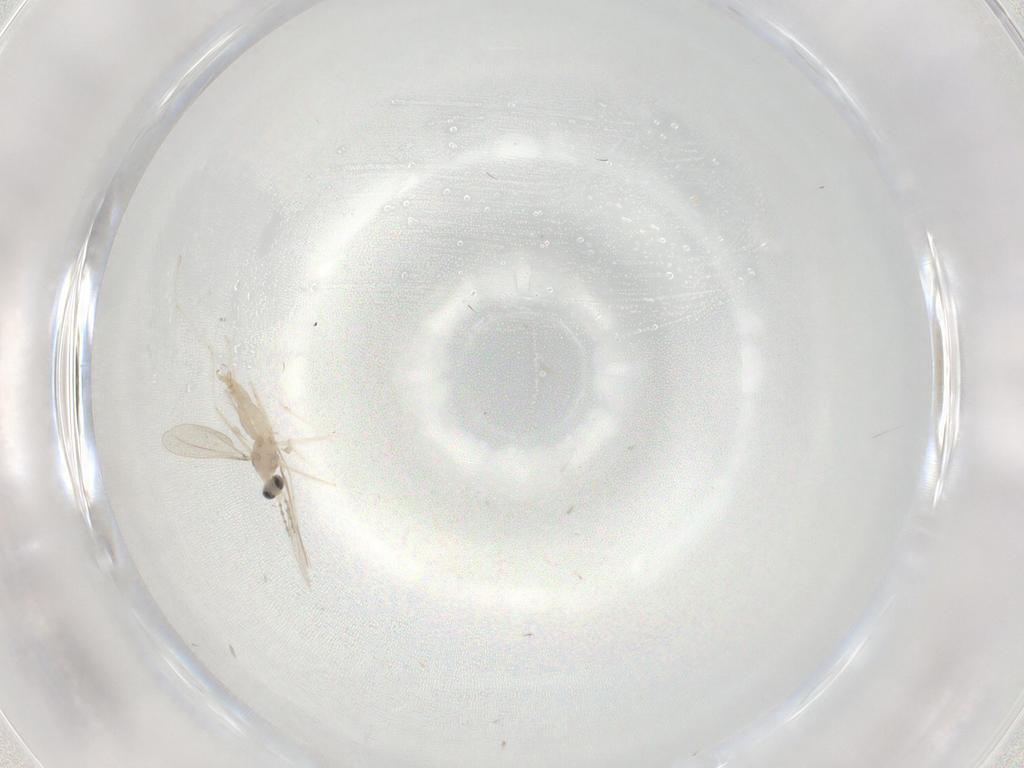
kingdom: Animalia
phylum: Arthropoda
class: Insecta
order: Diptera
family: Cecidomyiidae
